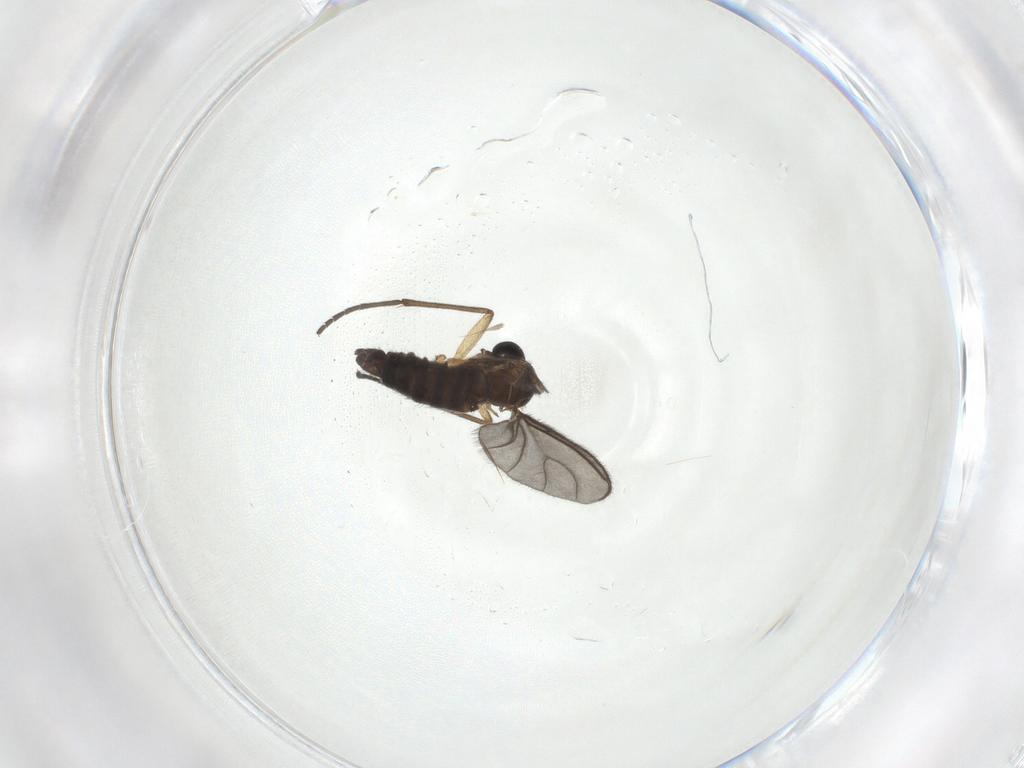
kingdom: Animalia
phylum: Arthropoda
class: Insecta
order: Diptera
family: Sciaridae
